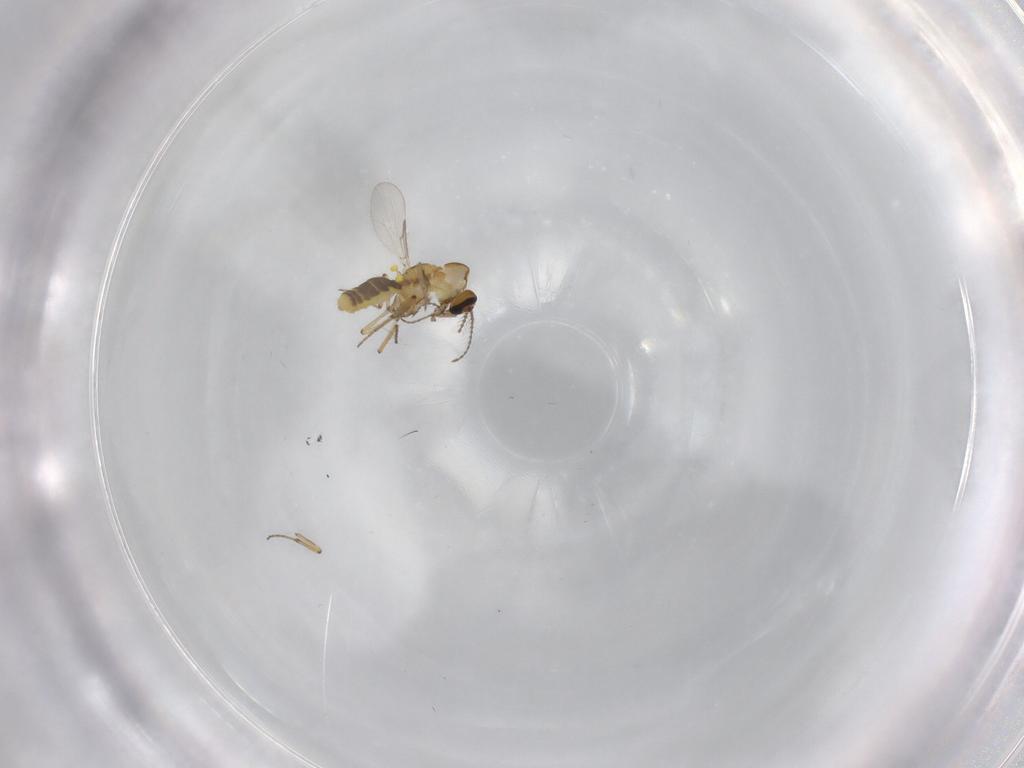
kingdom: Animalia
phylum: Arthropoda
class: Insecta
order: Diptera
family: Ceratopogonidae
